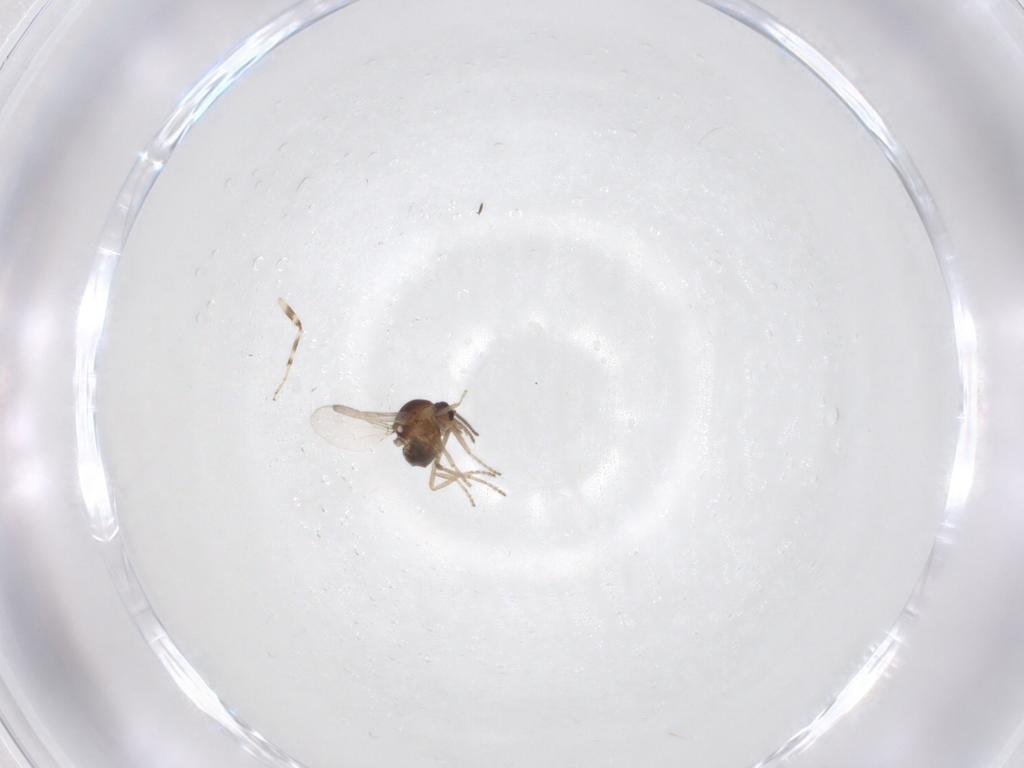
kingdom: Animalia
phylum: Arthropoda
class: Insecta
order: Diptera
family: Ceratopogonidae
